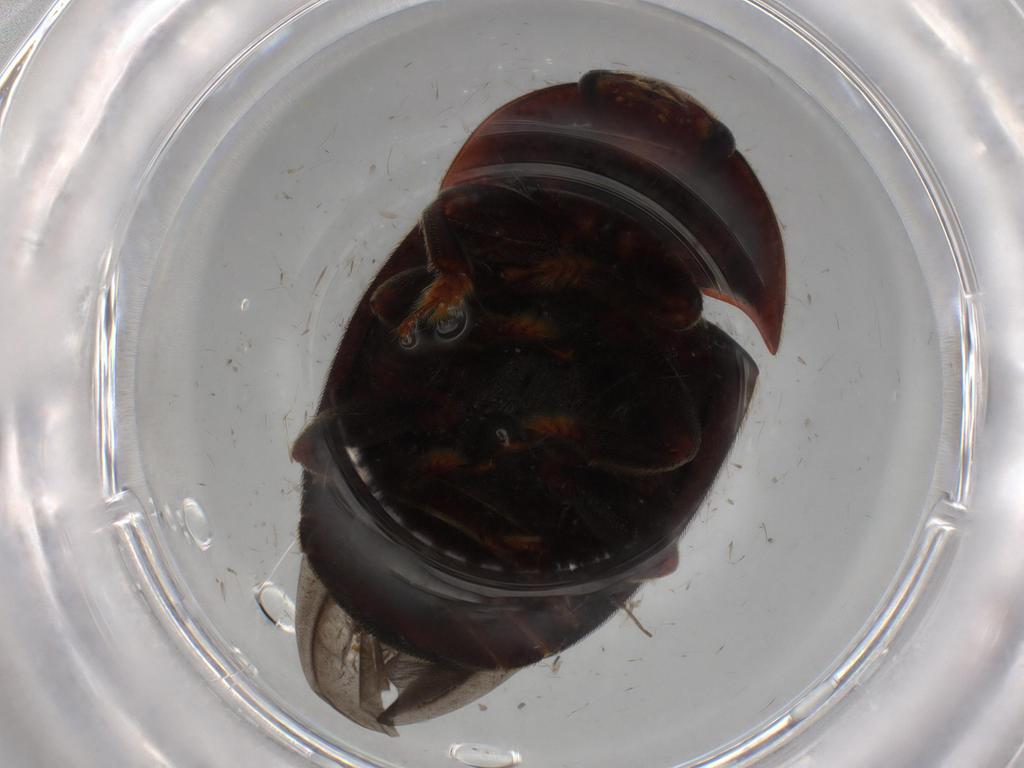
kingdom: Animalia
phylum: Arthropoda
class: Insecta
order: Coleoptera
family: Nitidulidae
